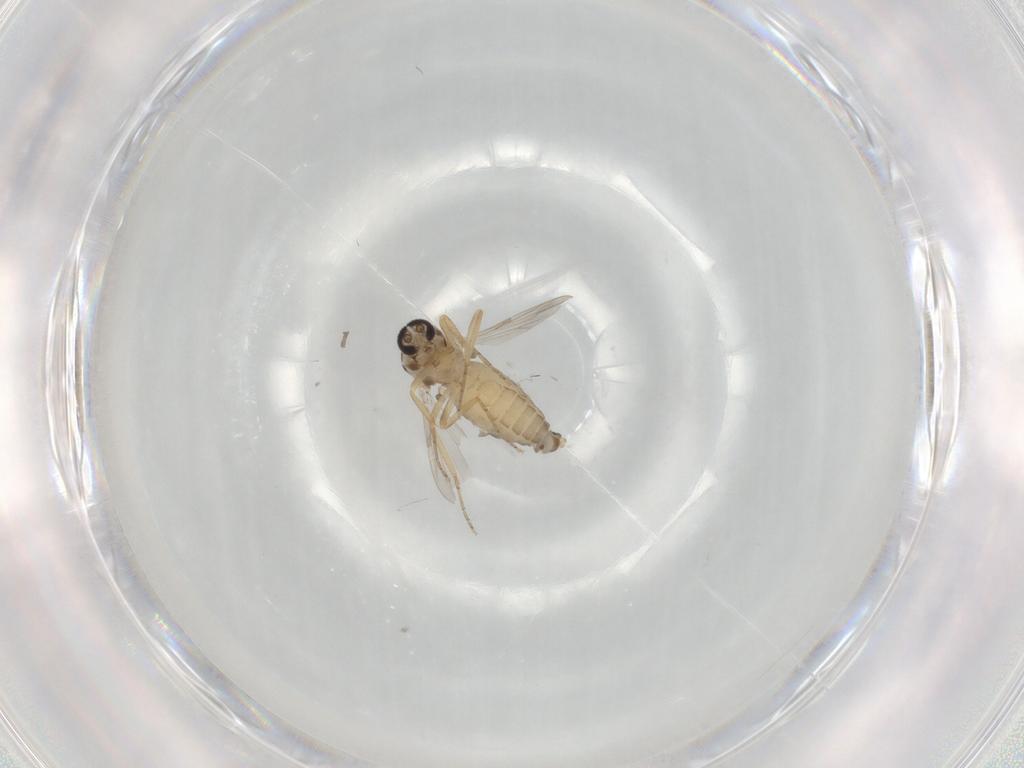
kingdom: Animalia
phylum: Arthropoda
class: Insecta
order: Diptera
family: Ceratopogonidae
